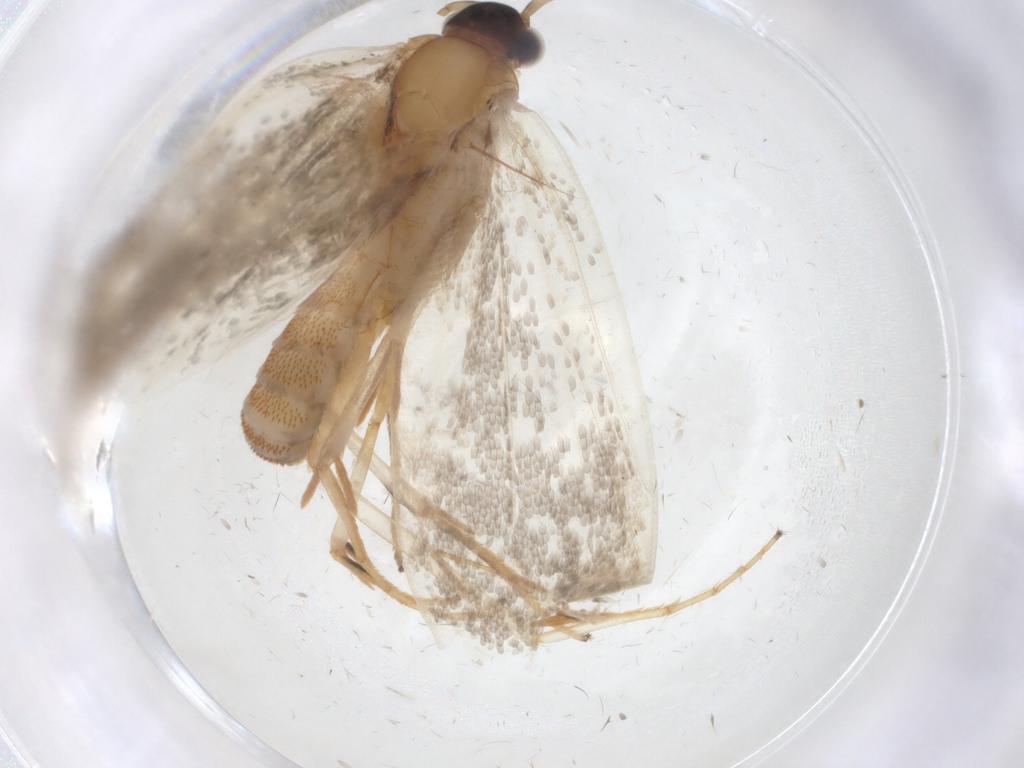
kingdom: Animalia
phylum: Arthropoda
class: Insecta
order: Lepidoptera
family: Oecophoridae
